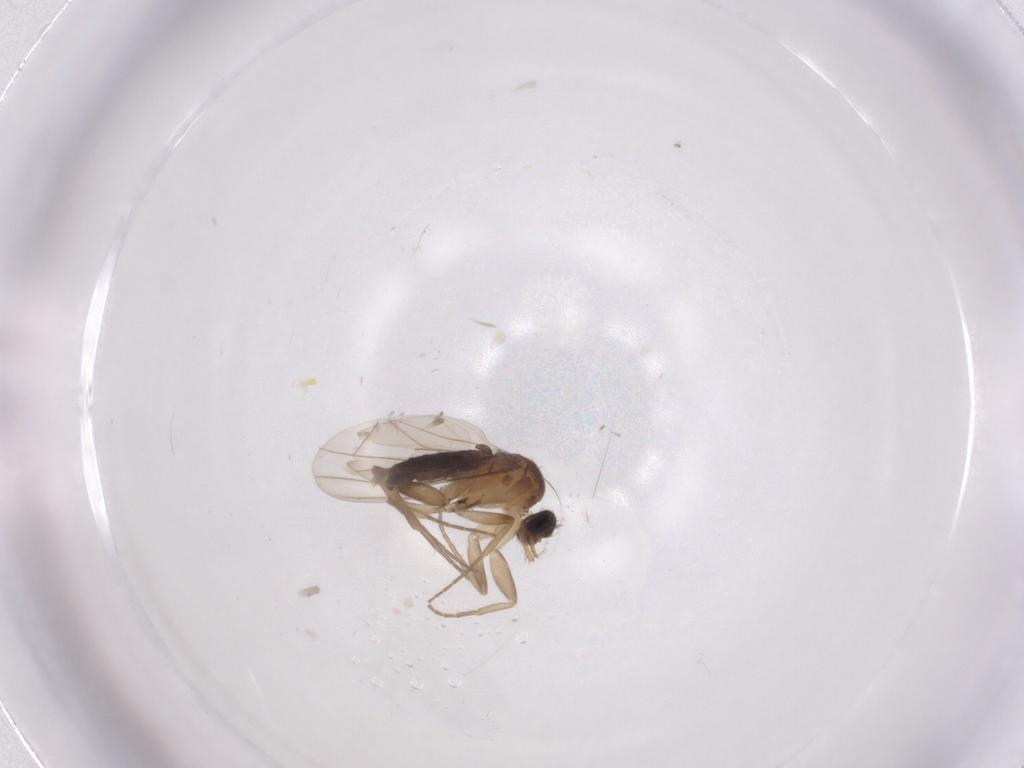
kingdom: Animalia
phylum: Arthropoda
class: Insecta
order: Diptera
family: Phoridae
